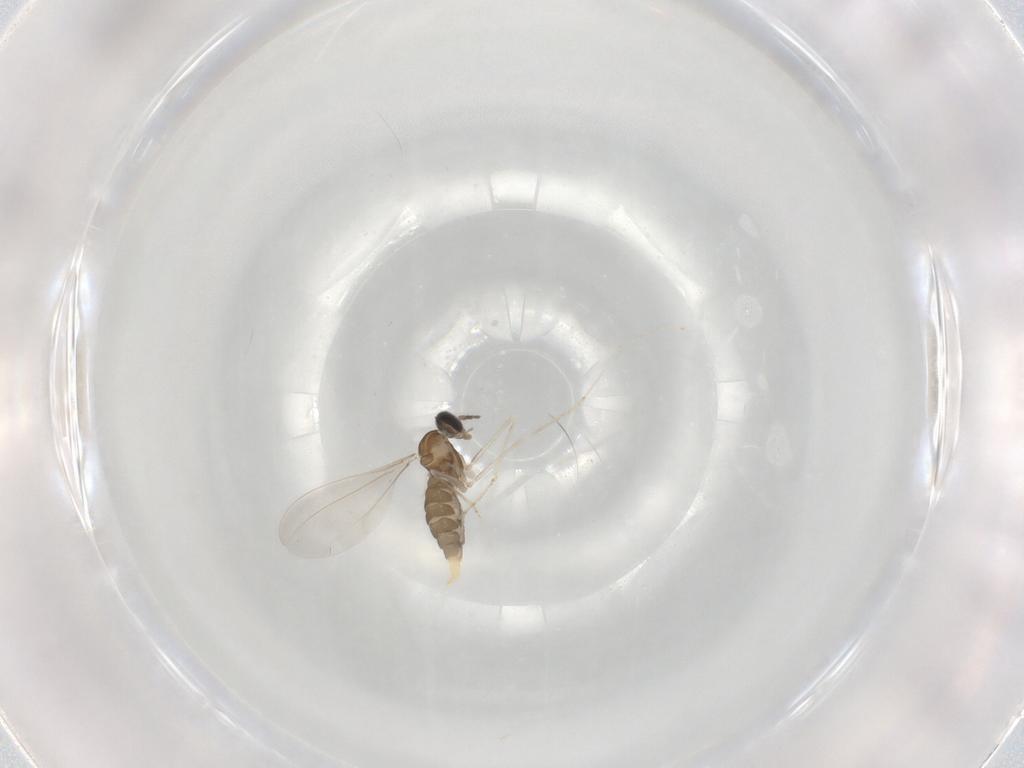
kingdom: Animalia
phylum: Arthropoda
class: Insecta
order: Diptera
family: Cecidomyiidae
